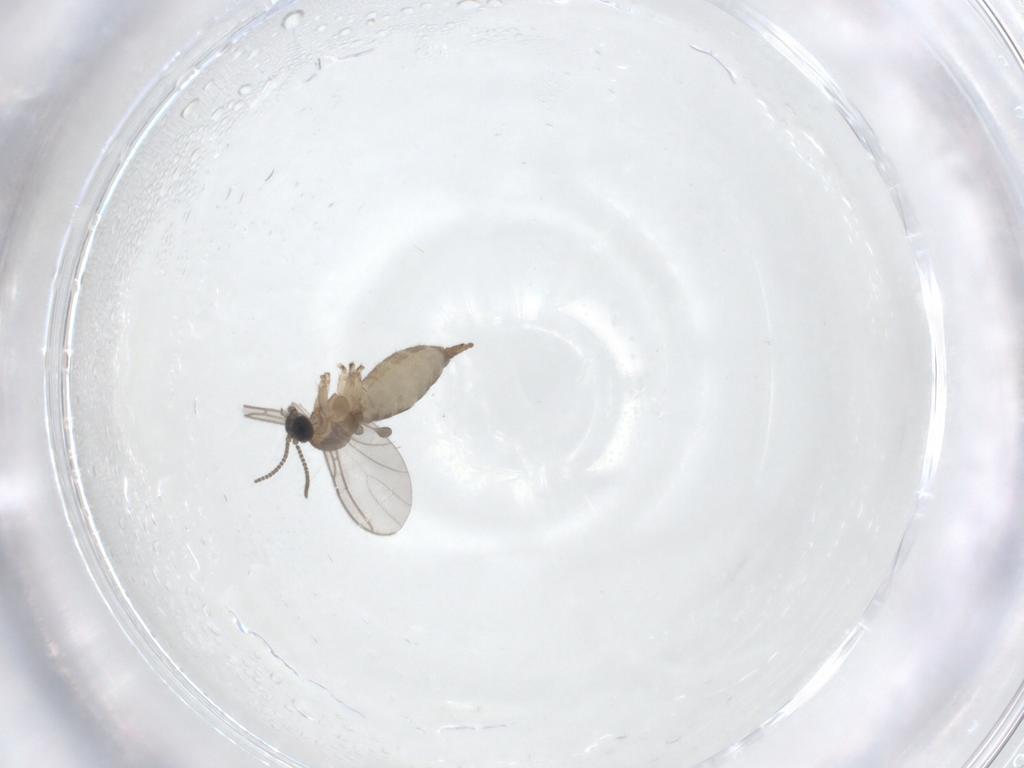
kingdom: Animalia
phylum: Arthropoda
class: Insecta
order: Diptera
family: Sciaridae
